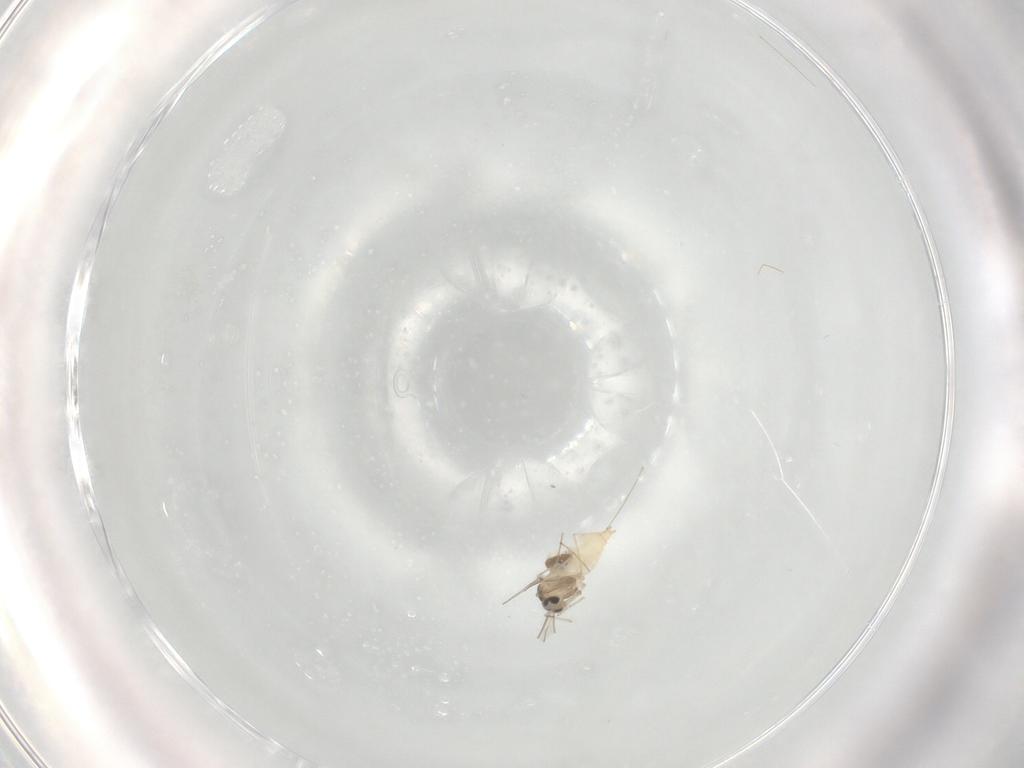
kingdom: Animalia
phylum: Arthropoda
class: Insecta
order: Diptera
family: Cecidomyiidae
